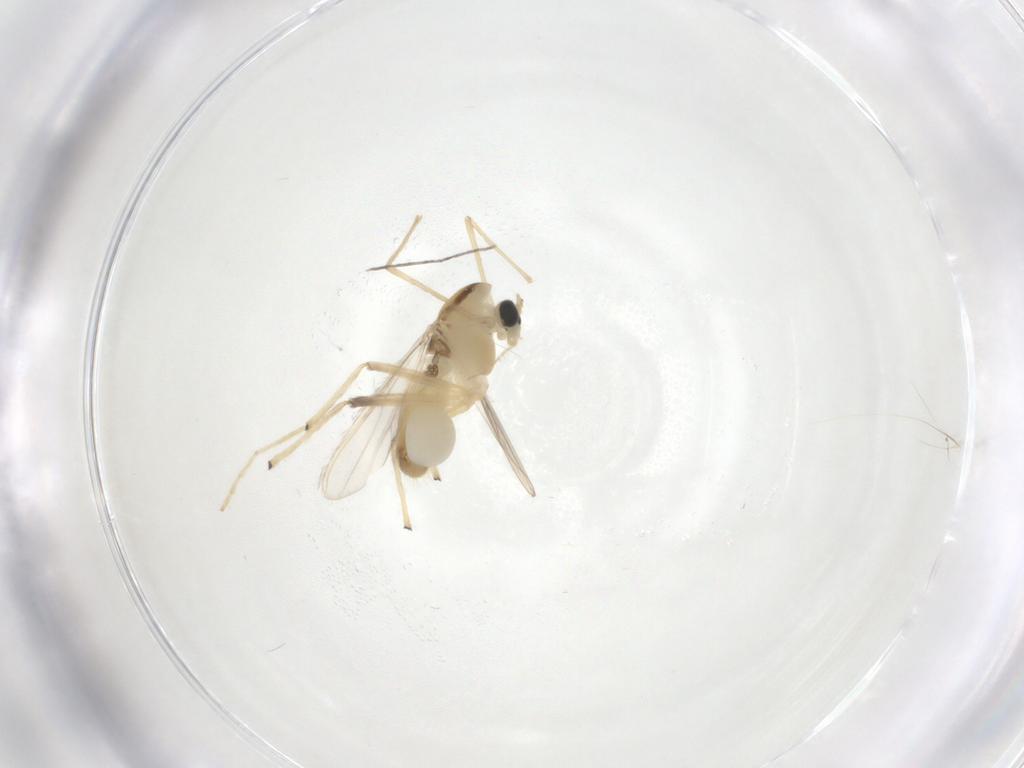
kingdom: Animalia
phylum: Arthropoda
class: Insecta
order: Diptera
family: Chironomidae
